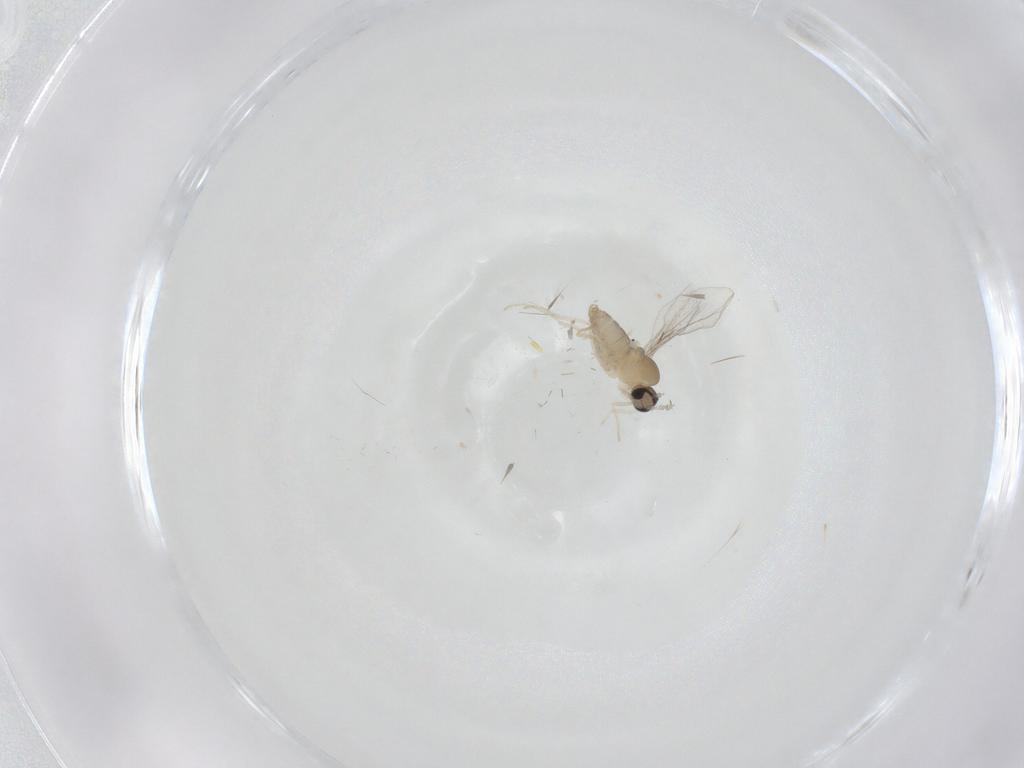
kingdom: Animalia
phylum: Arthropoda
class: Insecta
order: Diptera
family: Cecidomyiidae
